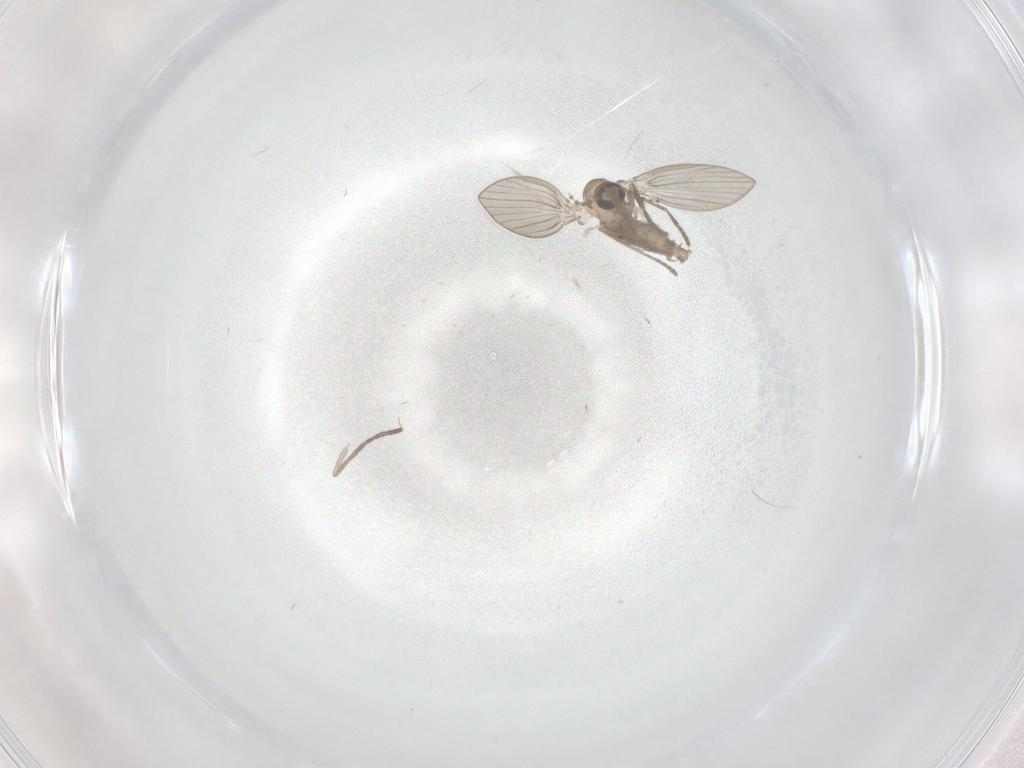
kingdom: Animalia
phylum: Arthropoda
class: Insecta
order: Diptera
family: Psychodidae
